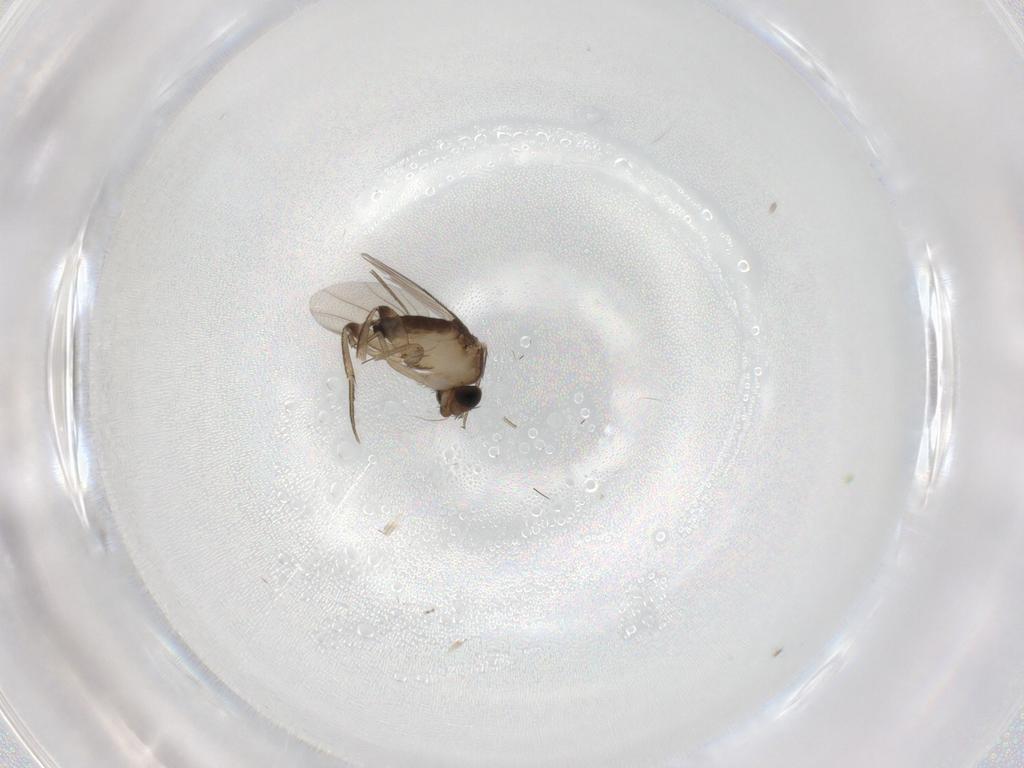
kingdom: Animalia
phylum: Arthropoda
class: Insecta
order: Diptera
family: Phoridae
